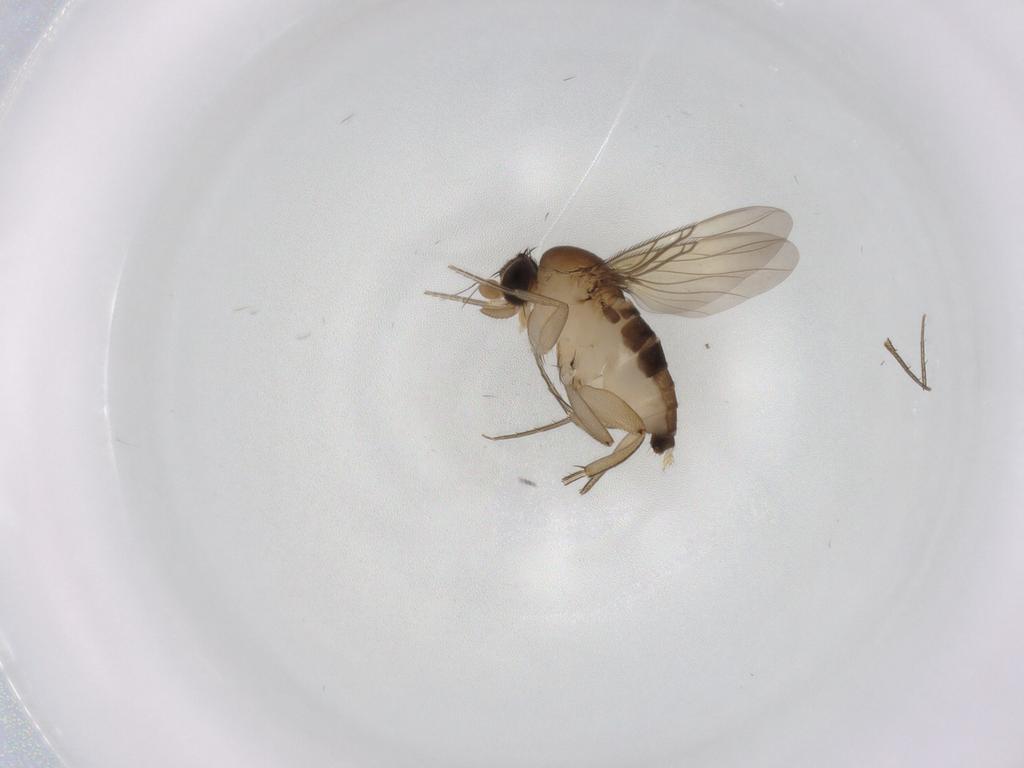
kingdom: Animalia
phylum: Arthropoda
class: Insecta
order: Diptera
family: Phoridae
